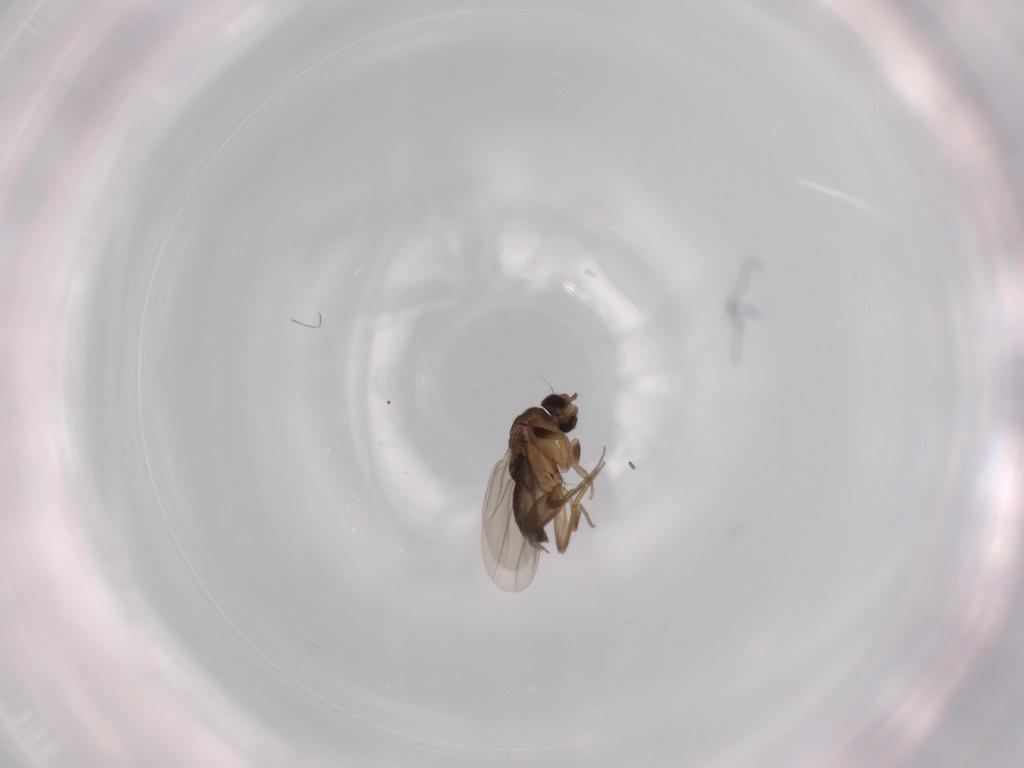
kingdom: Animalia
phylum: Arthropoda
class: Insecta
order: Diptera
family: Phoridae
